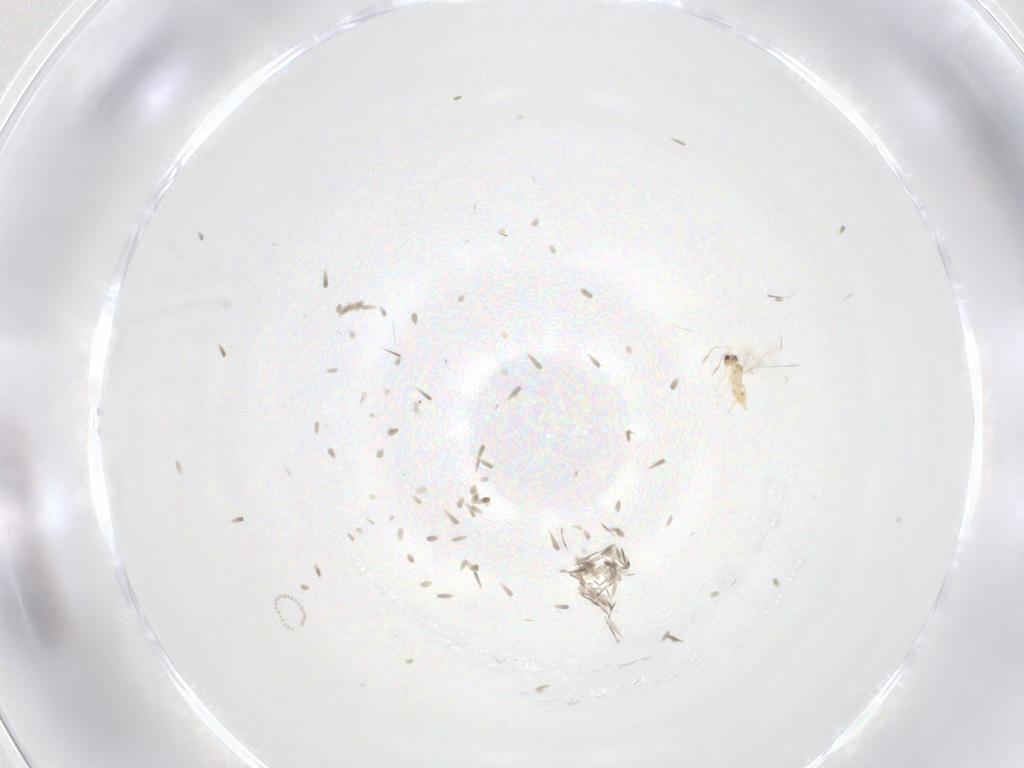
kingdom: Animalia
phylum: Arthropoda
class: Insecta
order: Diptera
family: Cecidomyiidae
